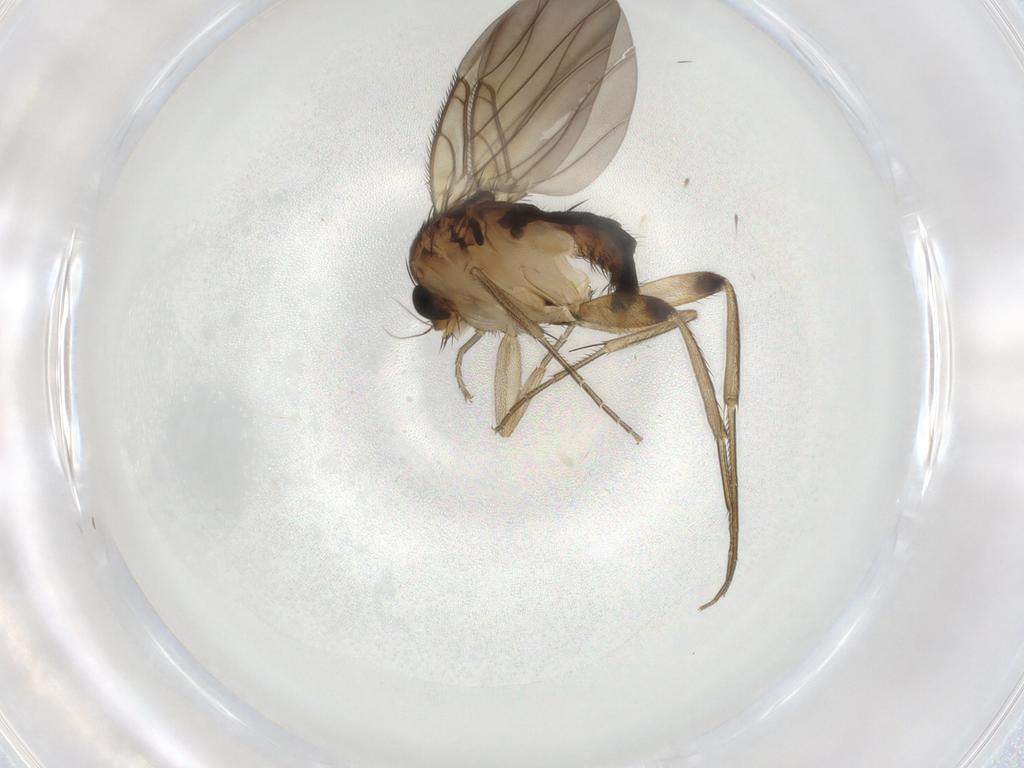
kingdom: Animalia
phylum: Arthropoda
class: Insecta
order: Diptera
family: Phoridae
